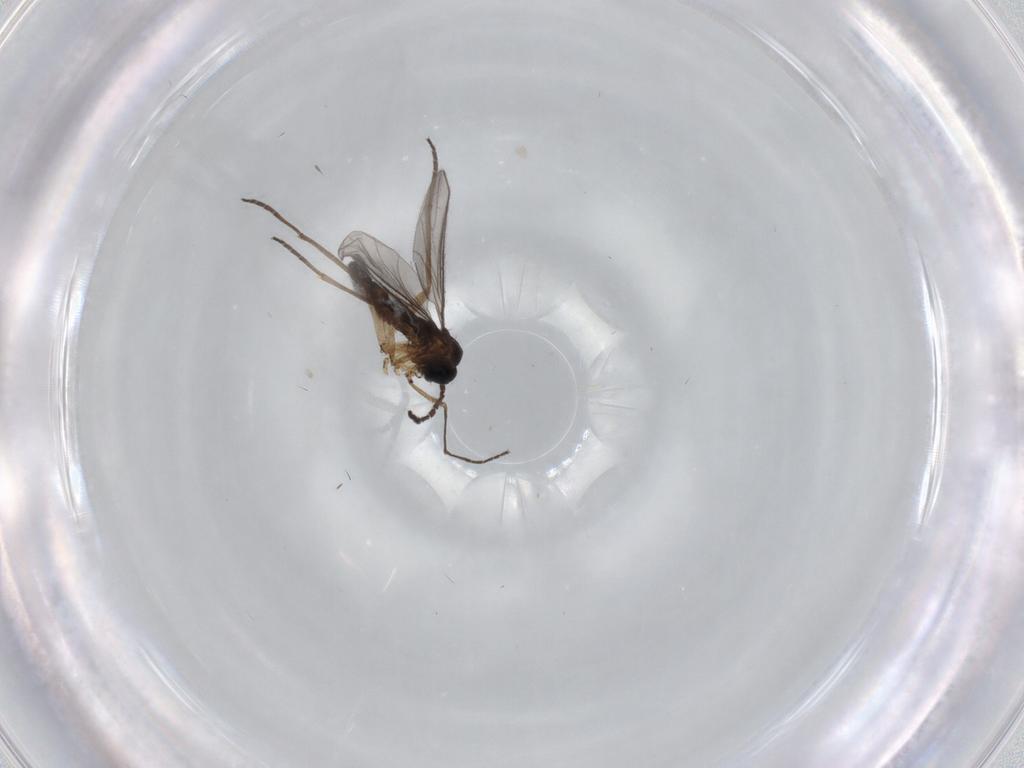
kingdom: Animalia
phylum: Arthropoda
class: Insecta
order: Diptera
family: Sciaridae
